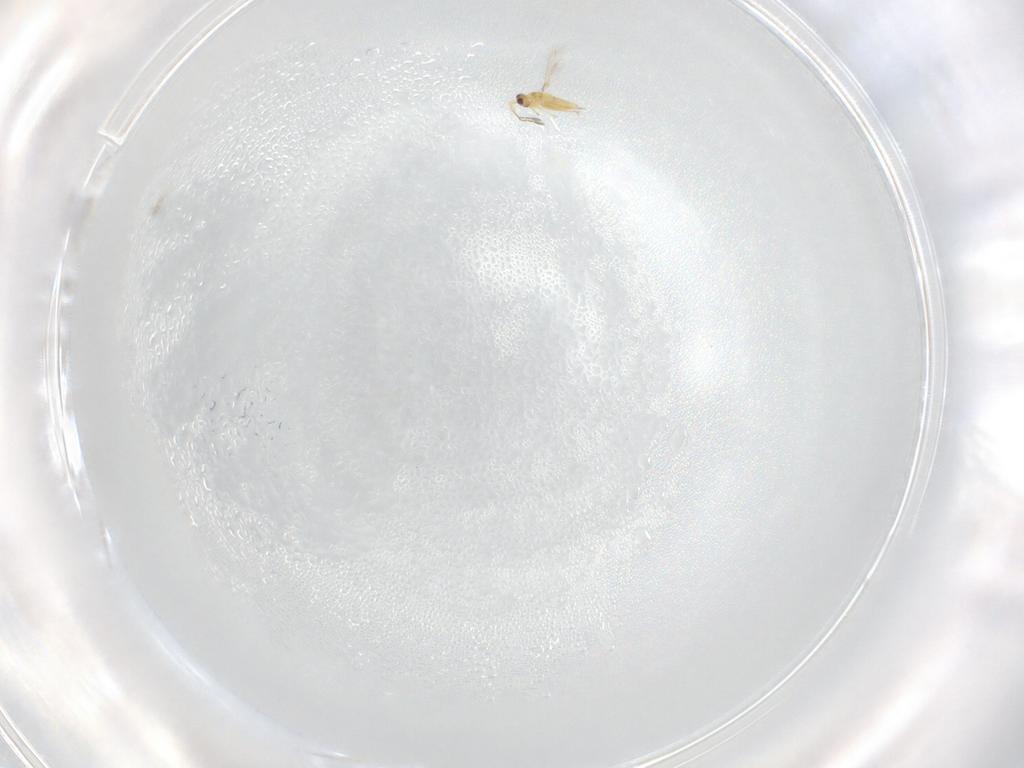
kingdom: Animalia
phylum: Arthropoda
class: Insecta
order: Hymenoptera
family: Mymaridae
